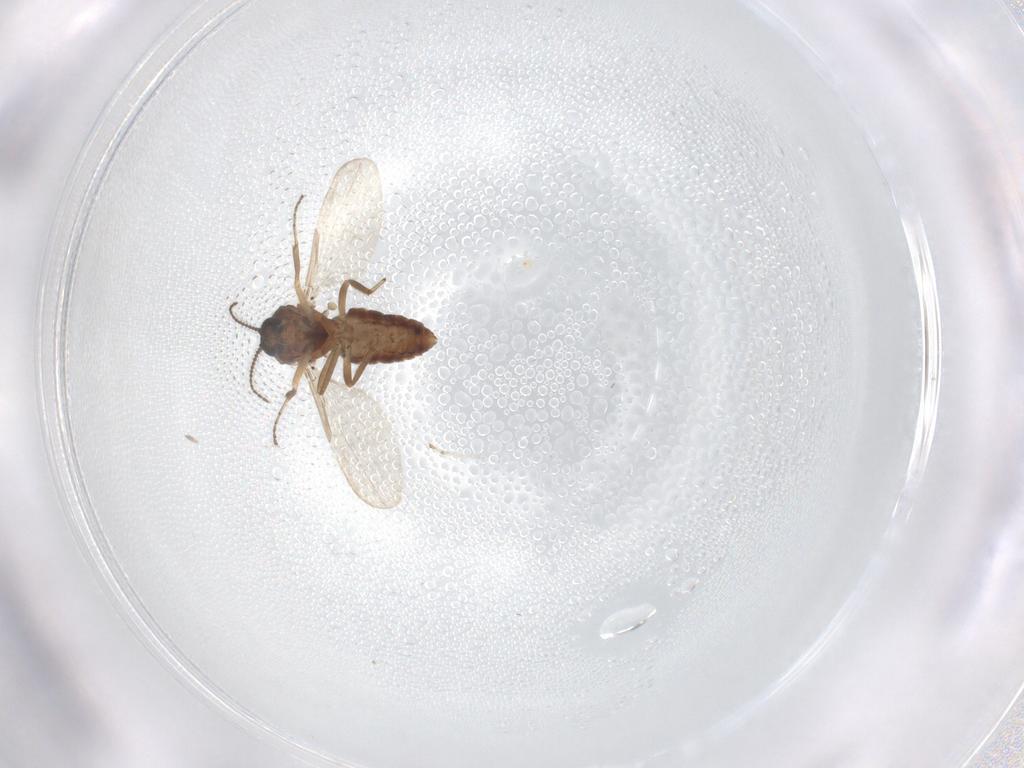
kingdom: Animalia
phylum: Arthropoda
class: Insecta
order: Diptera
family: Ceratopogonidae
